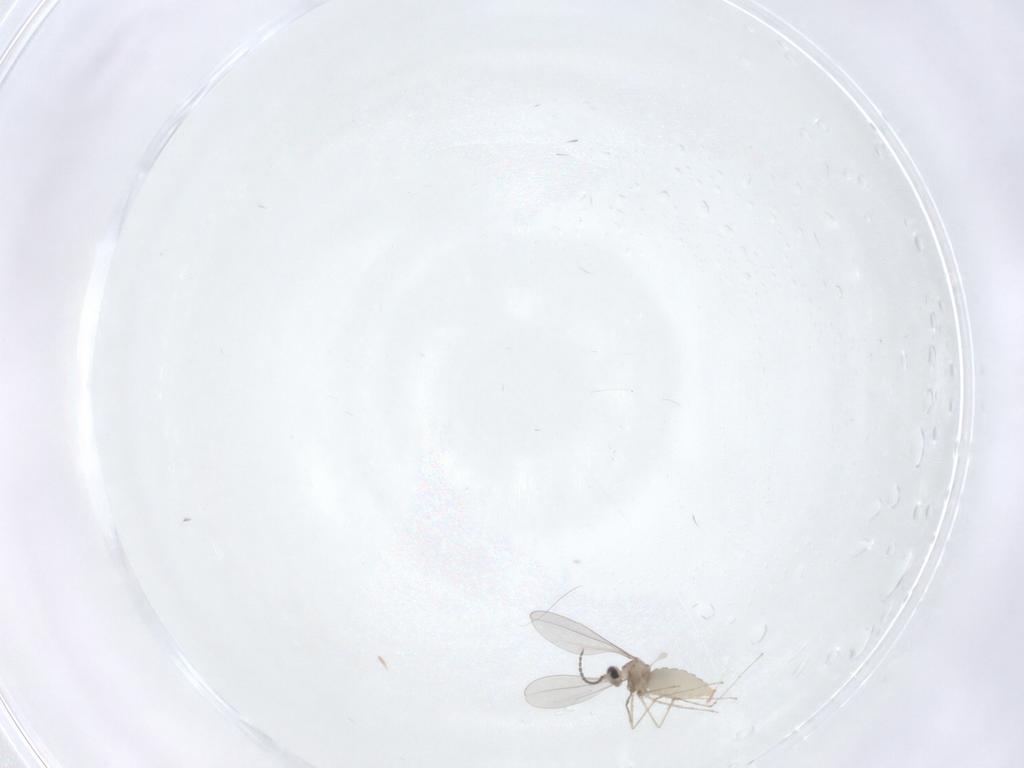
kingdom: Animalia
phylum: Arthropoda
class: Insecta
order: Diptera
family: Cecidomyiidae
